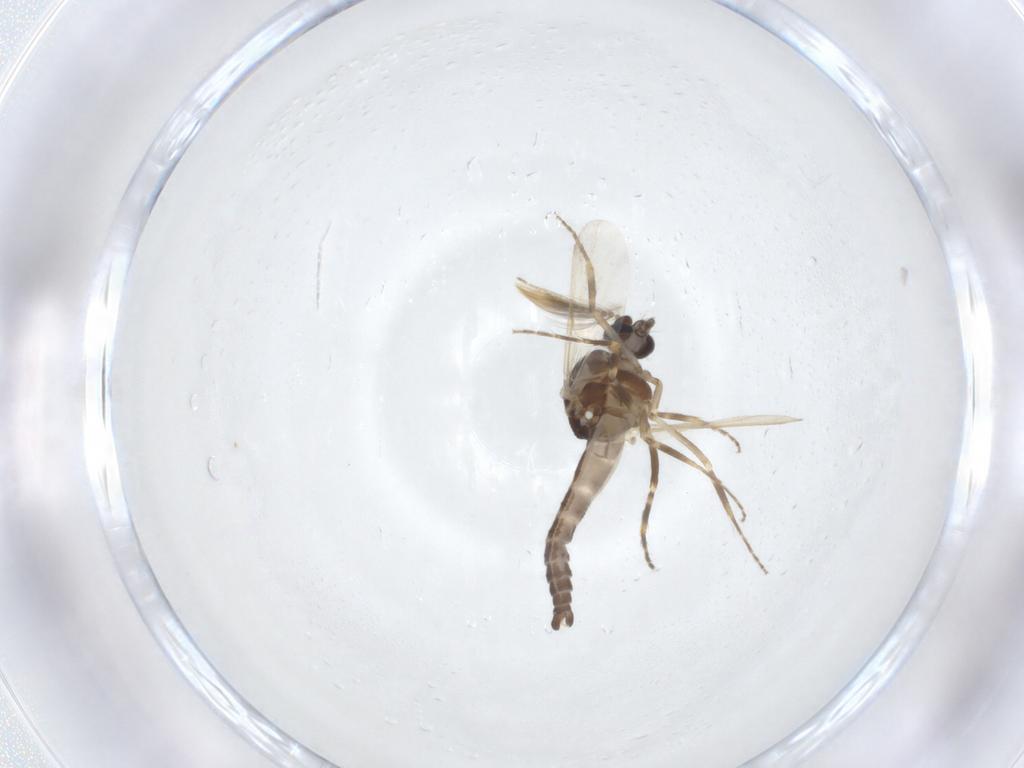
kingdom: Animalia
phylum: Arthropoda
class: Insecta
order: Diptera
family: Ceratopogonidae
